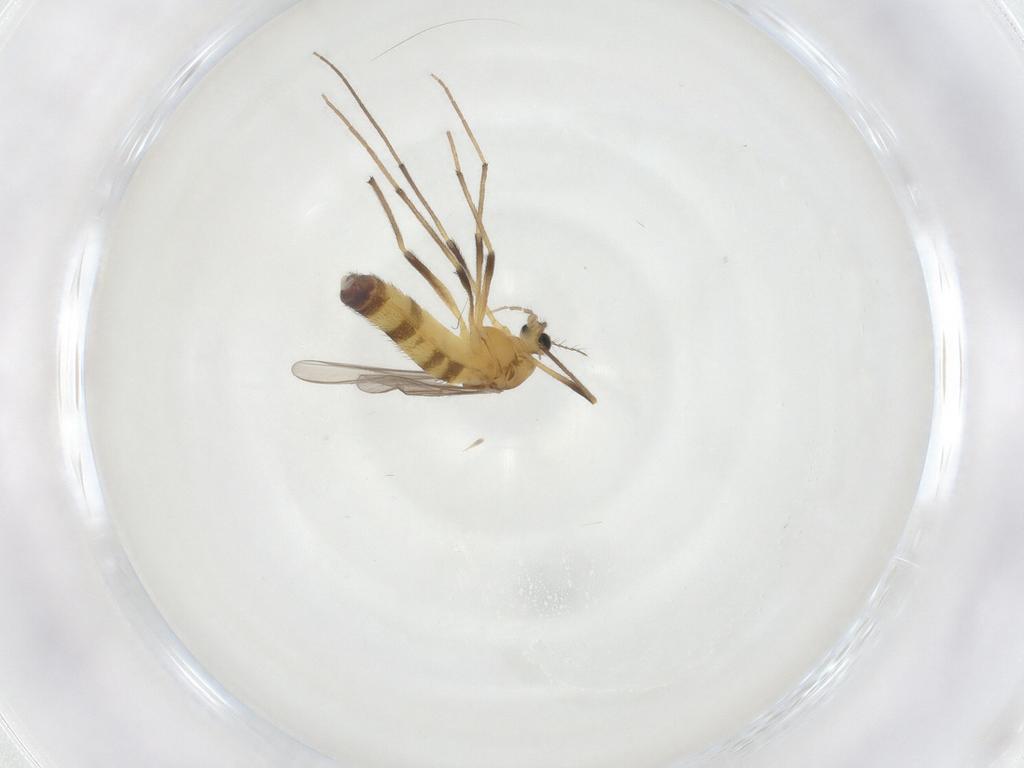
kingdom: Animalia
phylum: Arthropoda
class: Insecta
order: Diptera
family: Chironomidae
